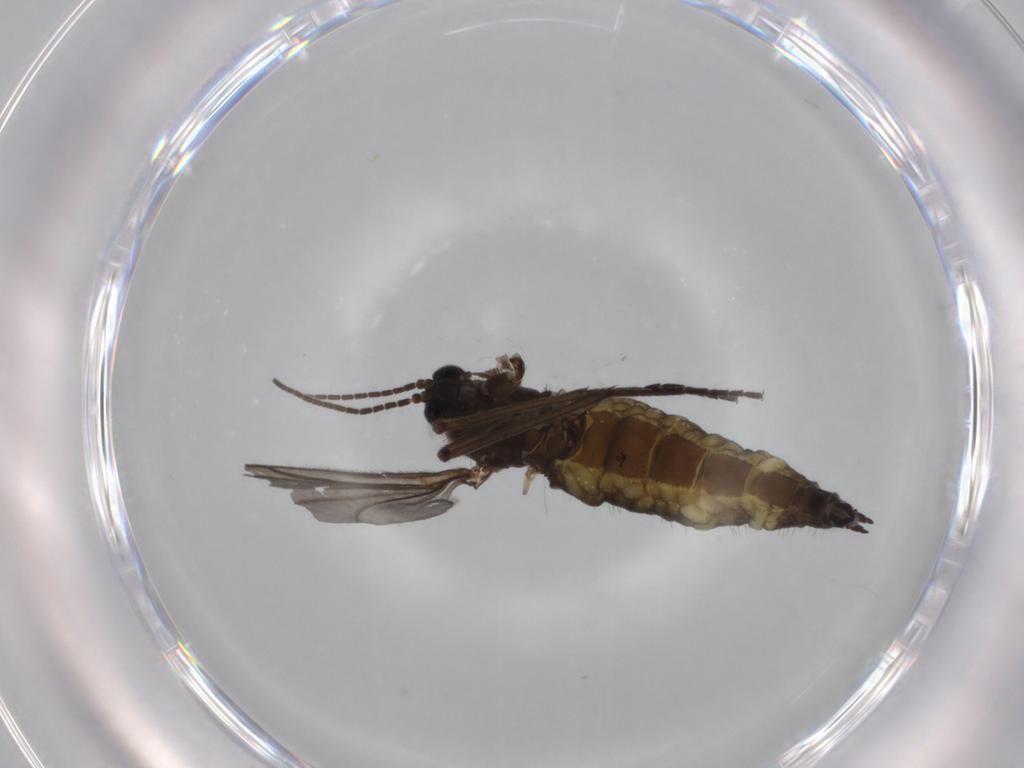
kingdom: Animalia
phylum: Arthropoda
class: Insecta
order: Diptera
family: Sciaridae
